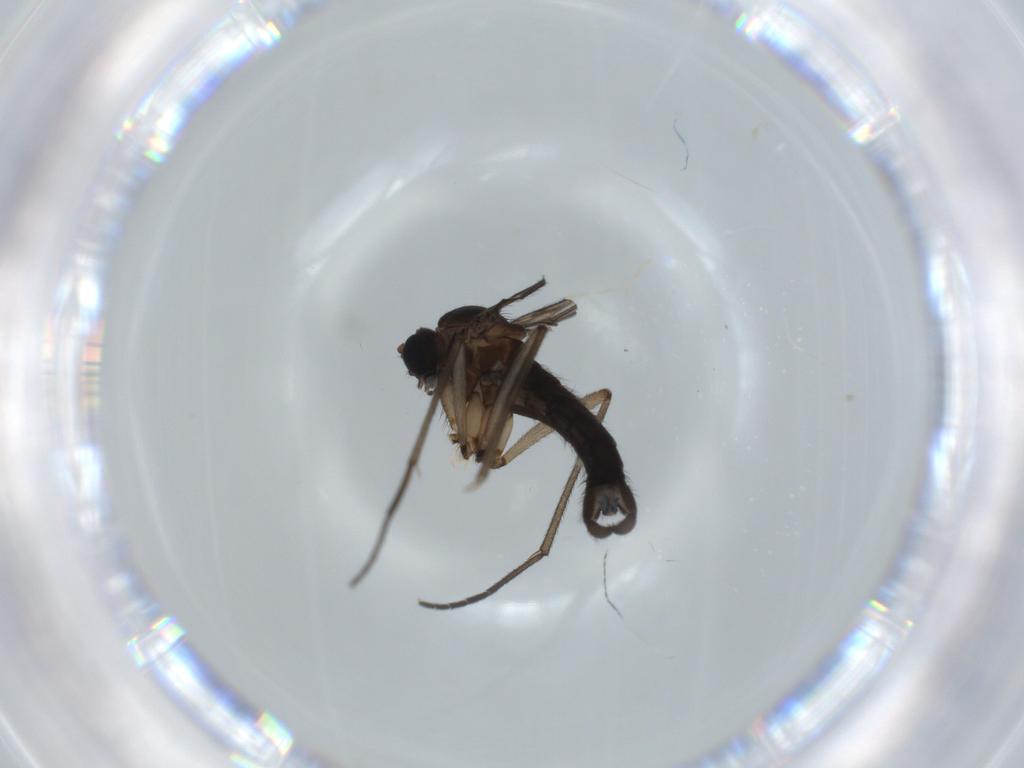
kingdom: Animalia
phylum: Arthropoda
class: Insecta
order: Diptera
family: Sciaridae
